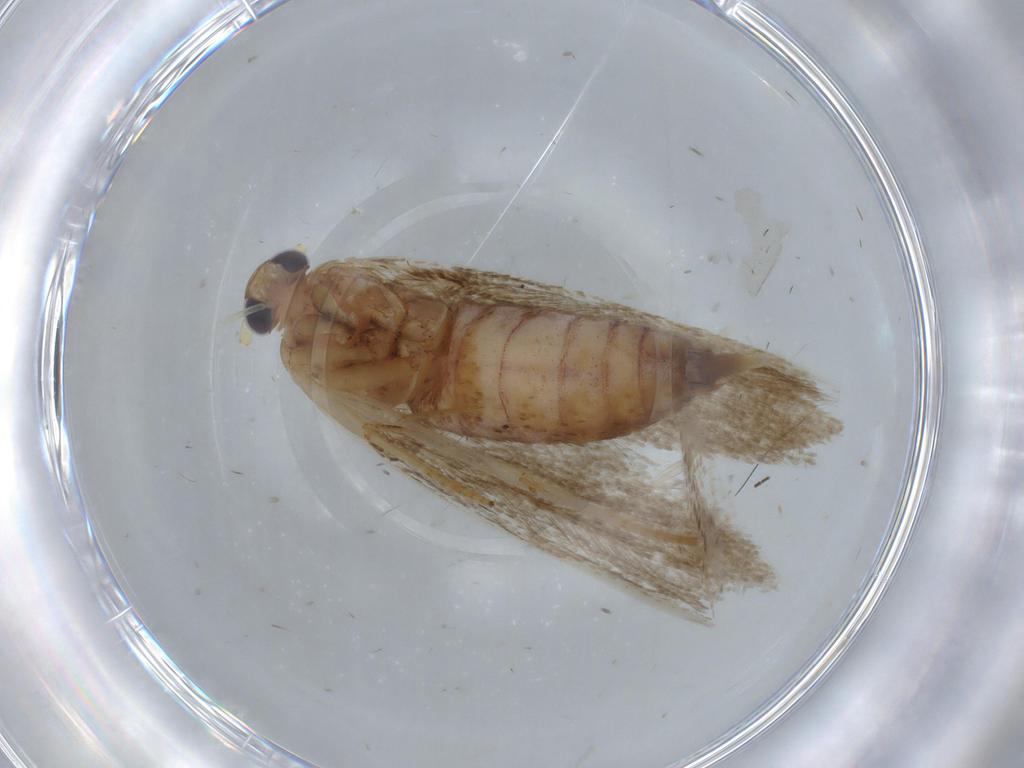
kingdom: Animalia
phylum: Arthropoda
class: Insecta
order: Lepidoptera
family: Blastobasidae
